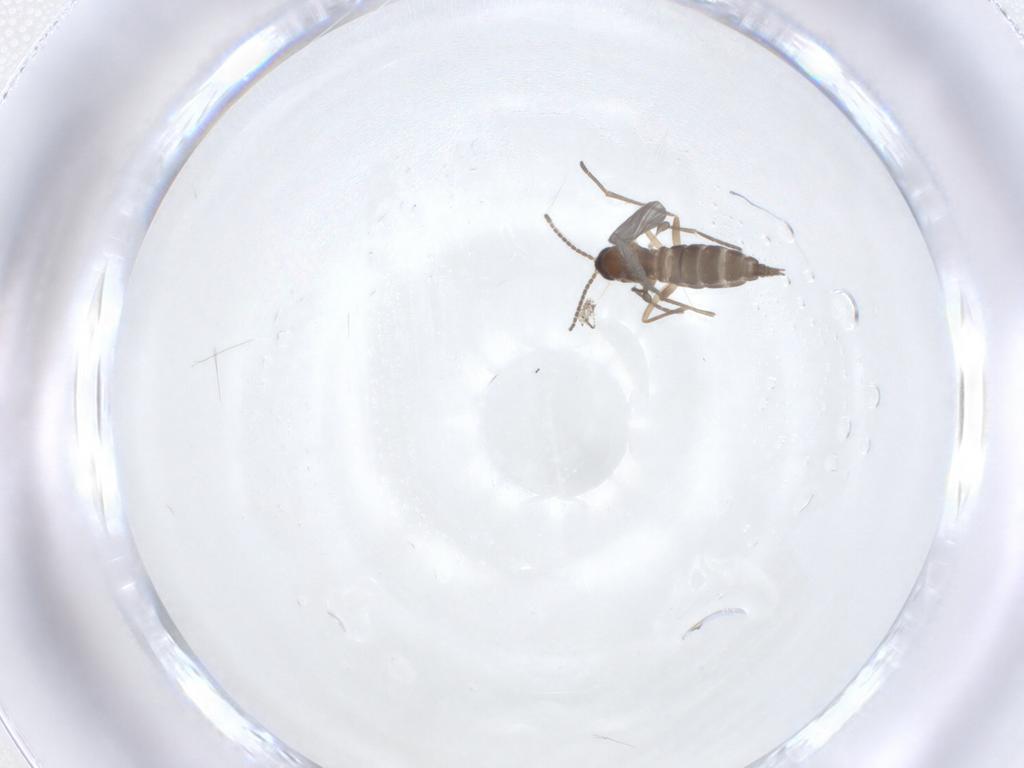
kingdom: Animalia
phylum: Arthropoda
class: Insecta
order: Diptera
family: Sciaridae
